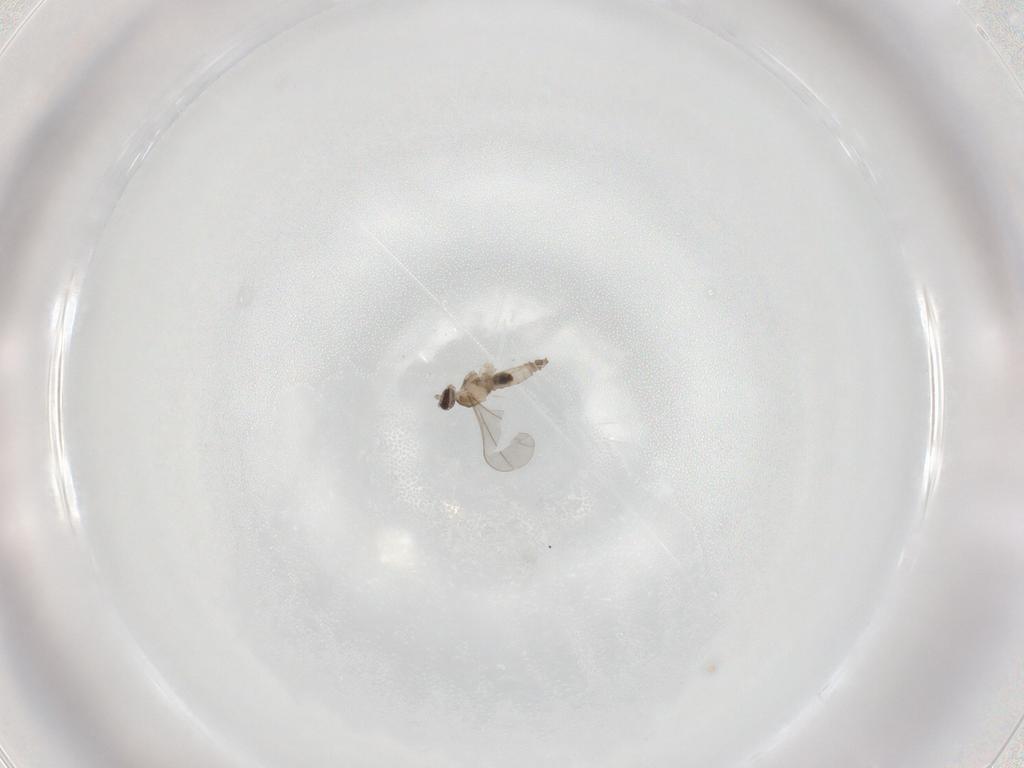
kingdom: Animalia
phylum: Arthropoda
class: Insecta
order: Diptera
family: Cecidomyiidae
